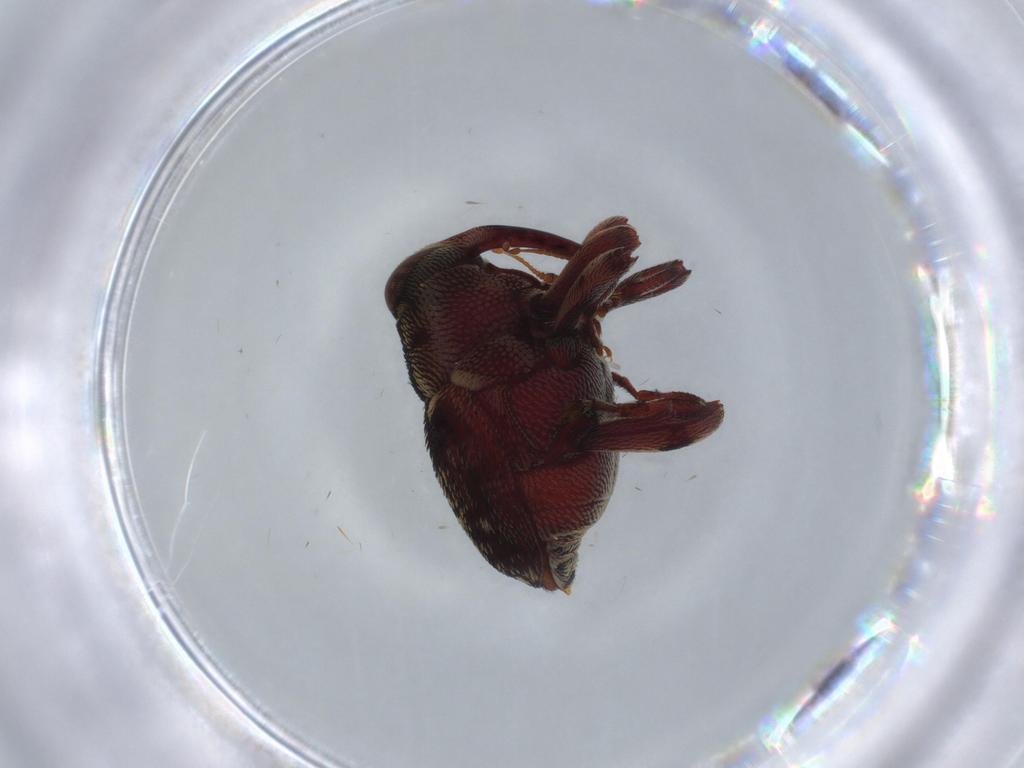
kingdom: Animalia
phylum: Arthropoda
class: Insecta
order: Coleoptera
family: Curculionidae
